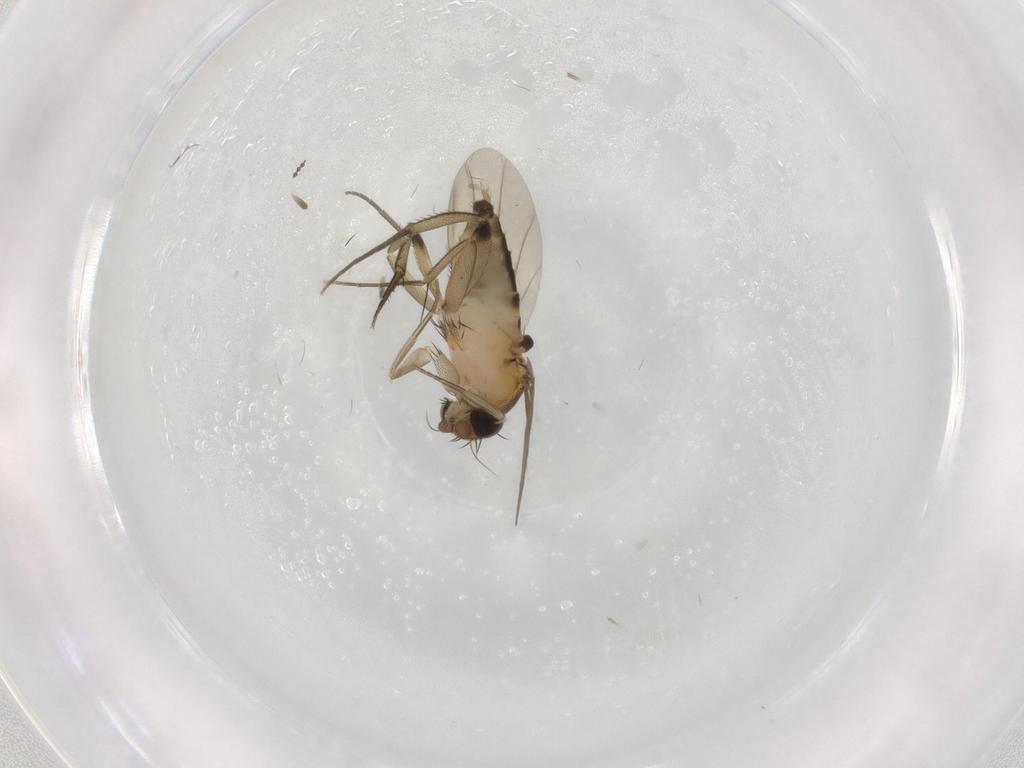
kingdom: Animalia
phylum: Arthropoda
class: Insecta
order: Diptera
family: Phoridae
